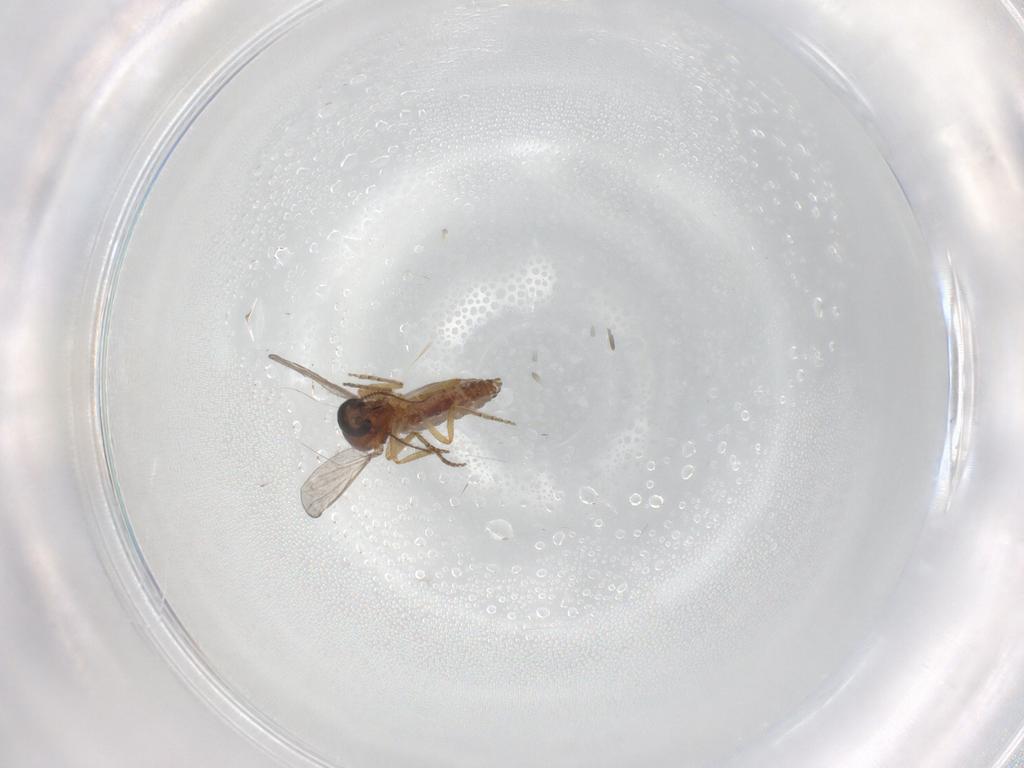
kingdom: Animalia
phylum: Arthropoda
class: Insecta
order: Diptera
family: Ceratopogonidae
